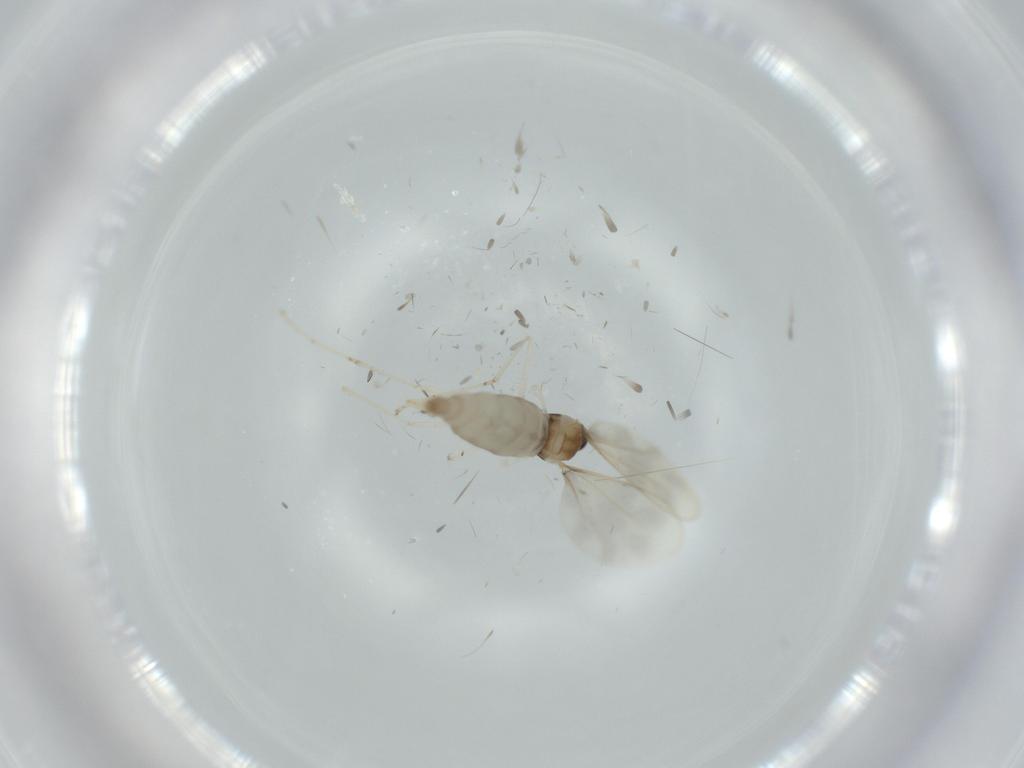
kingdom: Animalia
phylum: Arthropoda
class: Insecta
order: Diptera
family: Cecidomyiidae
